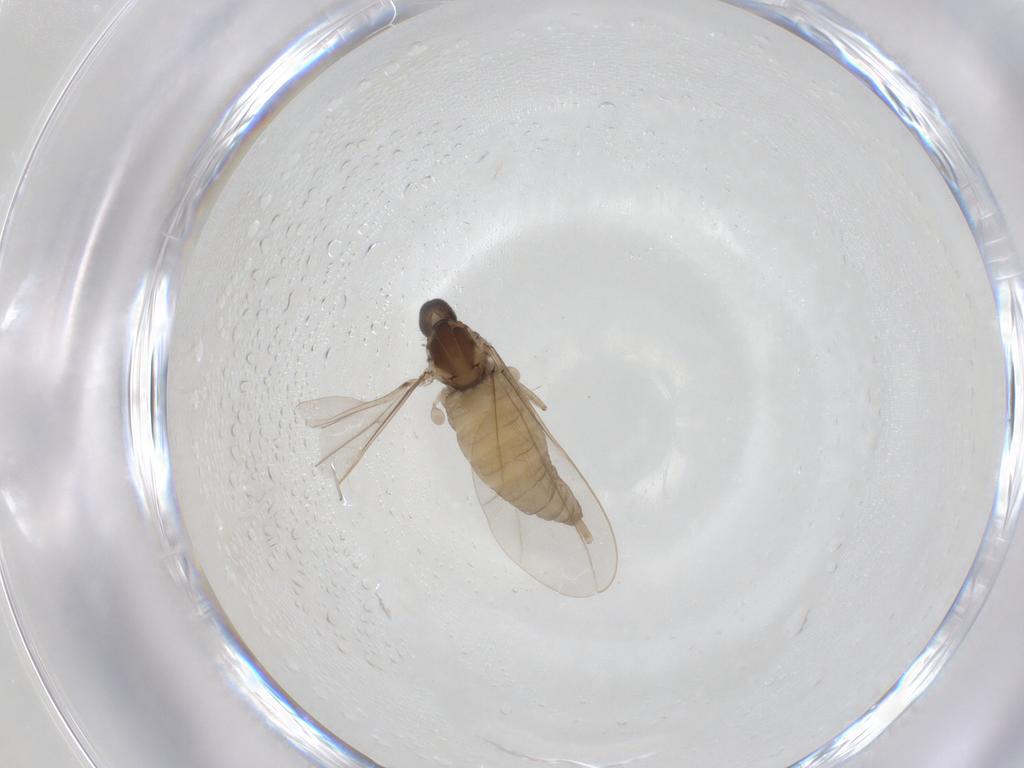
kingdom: Animalia
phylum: Arthropoda
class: Insecta
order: Diptera
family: Cecidomyiidae
